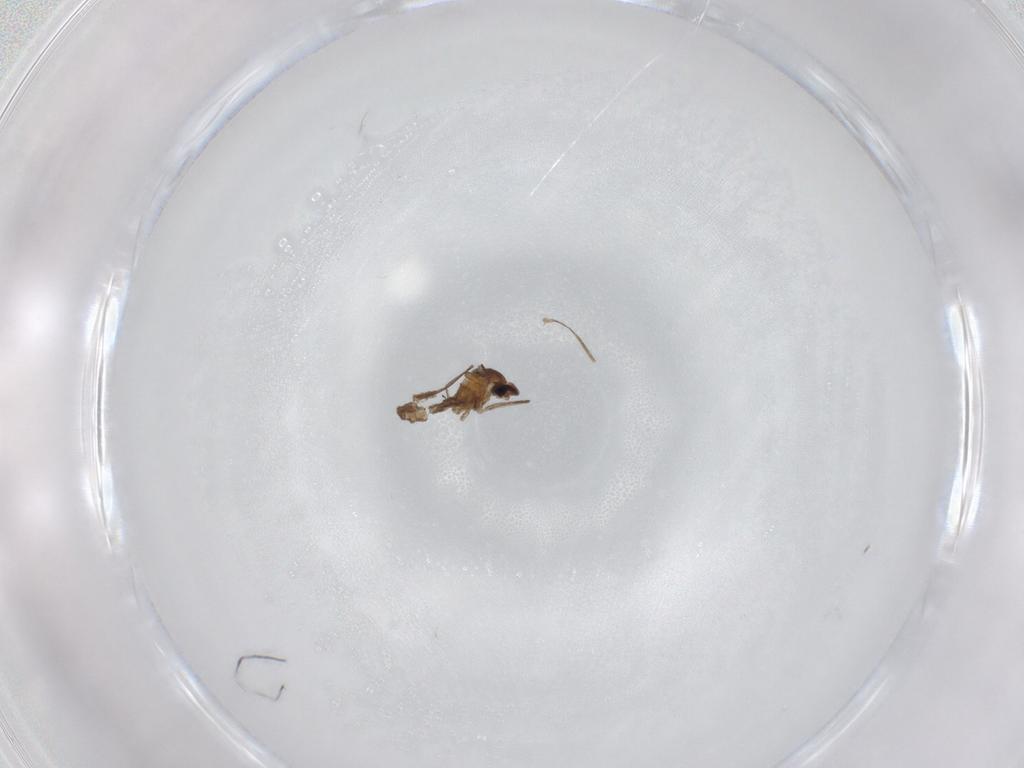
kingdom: Animalia
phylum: Arthropoda
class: Insecta
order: Diptera
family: Cecidomyiidae
